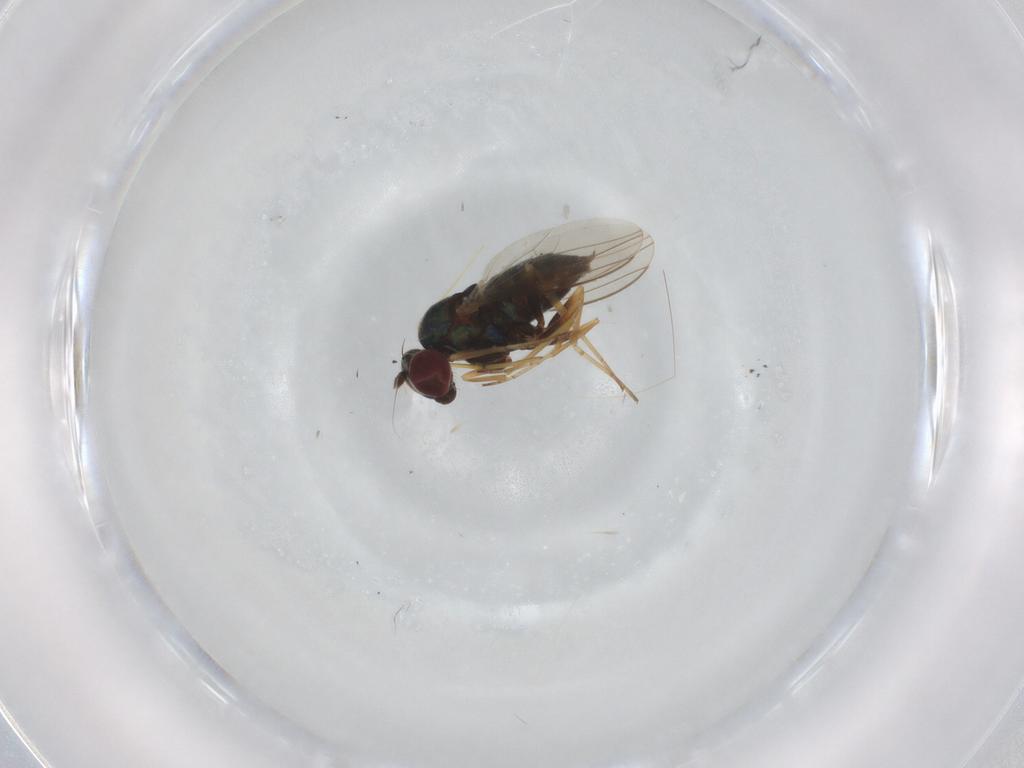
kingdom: Animalia
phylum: Arthropoda
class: Insecta
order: Diptera
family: Dolichopodidae
